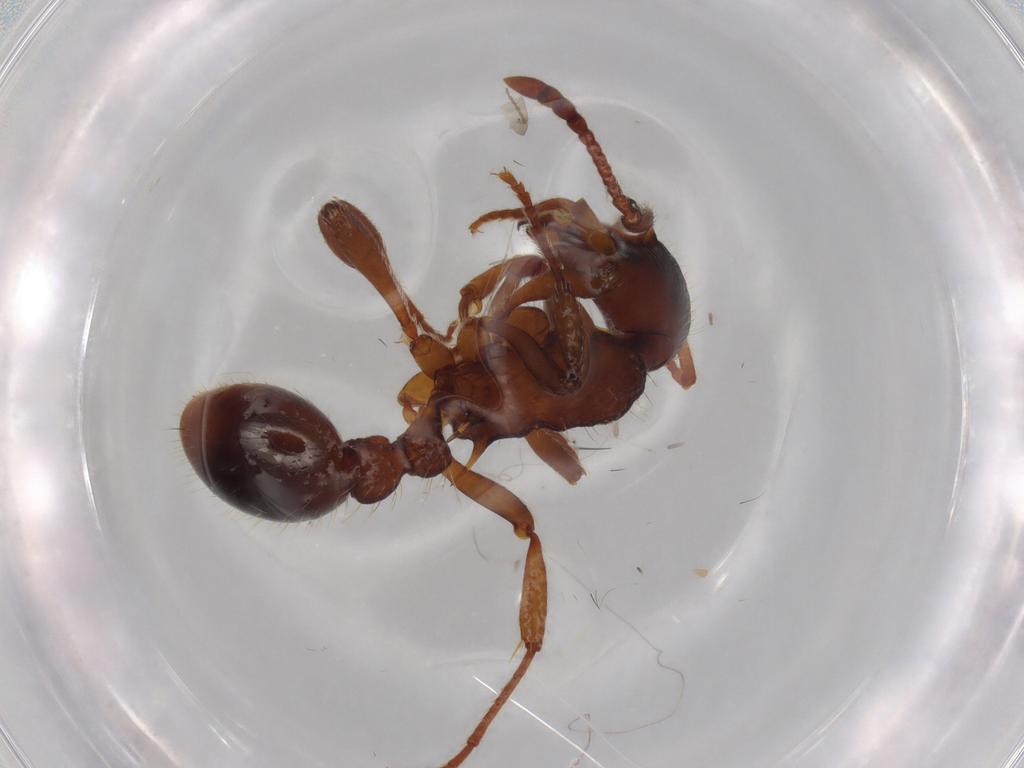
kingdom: Animalia
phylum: Arthropoda
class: Insecta
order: Hymenoptera
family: Formicidae
